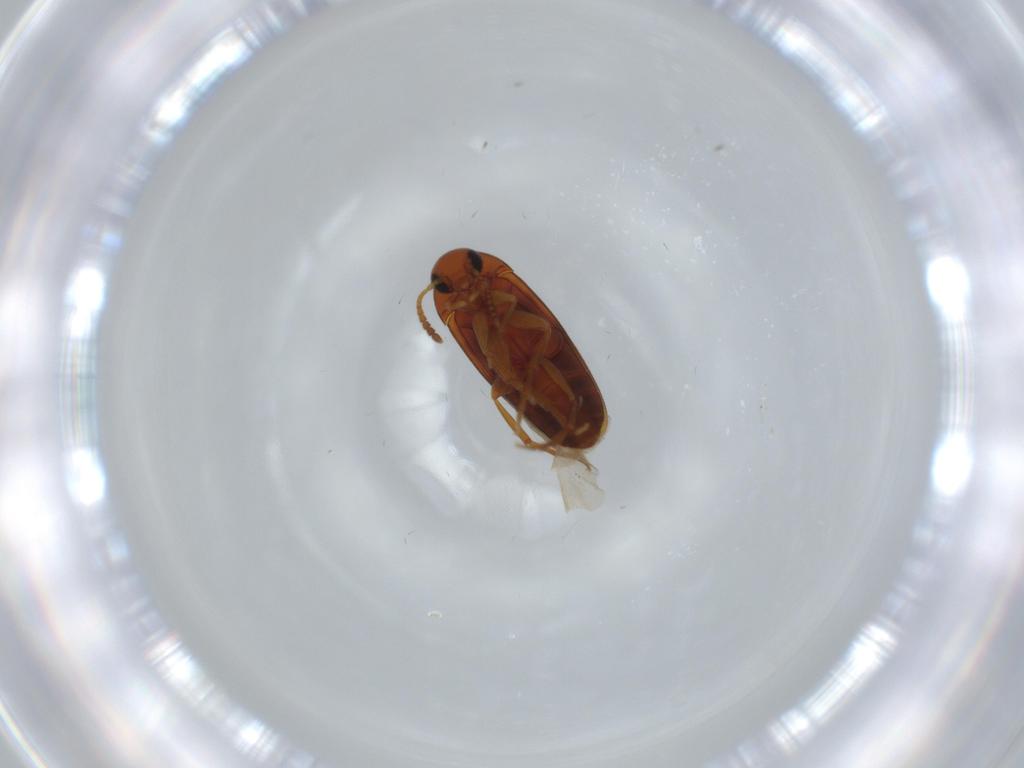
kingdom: Animalia
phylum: Arthropoda
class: Insecta
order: Coleoptera
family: Scraptiidae
